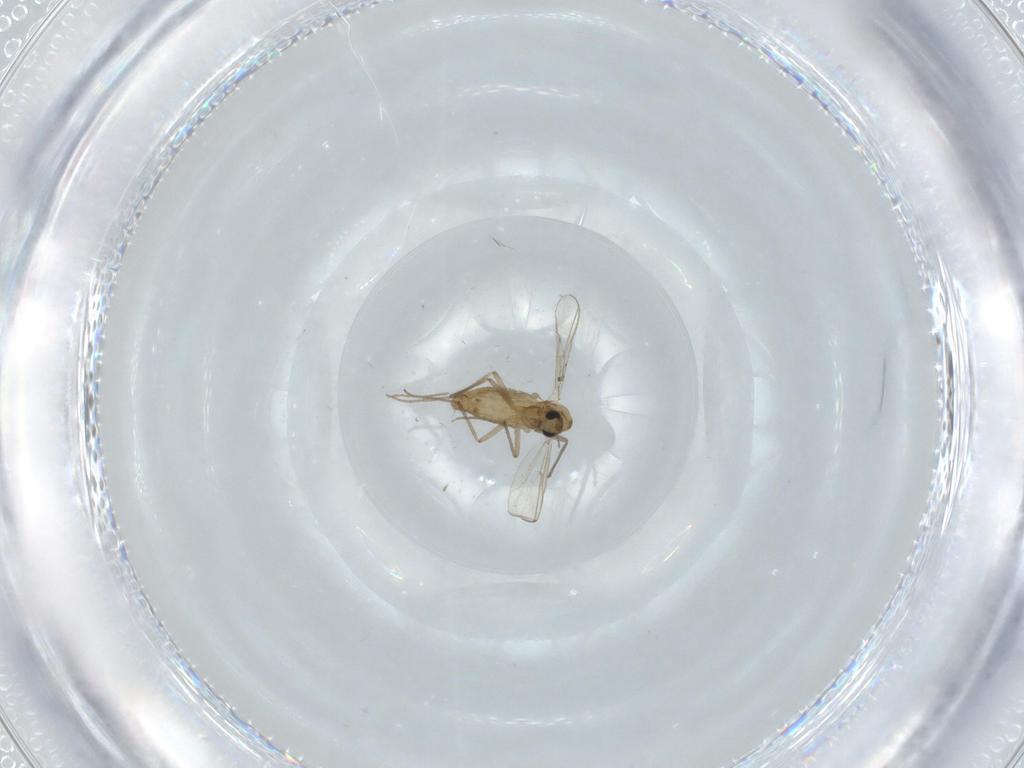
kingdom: Animalia
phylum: Arthropoda
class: Insecta
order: Diptera
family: Chironomidae
